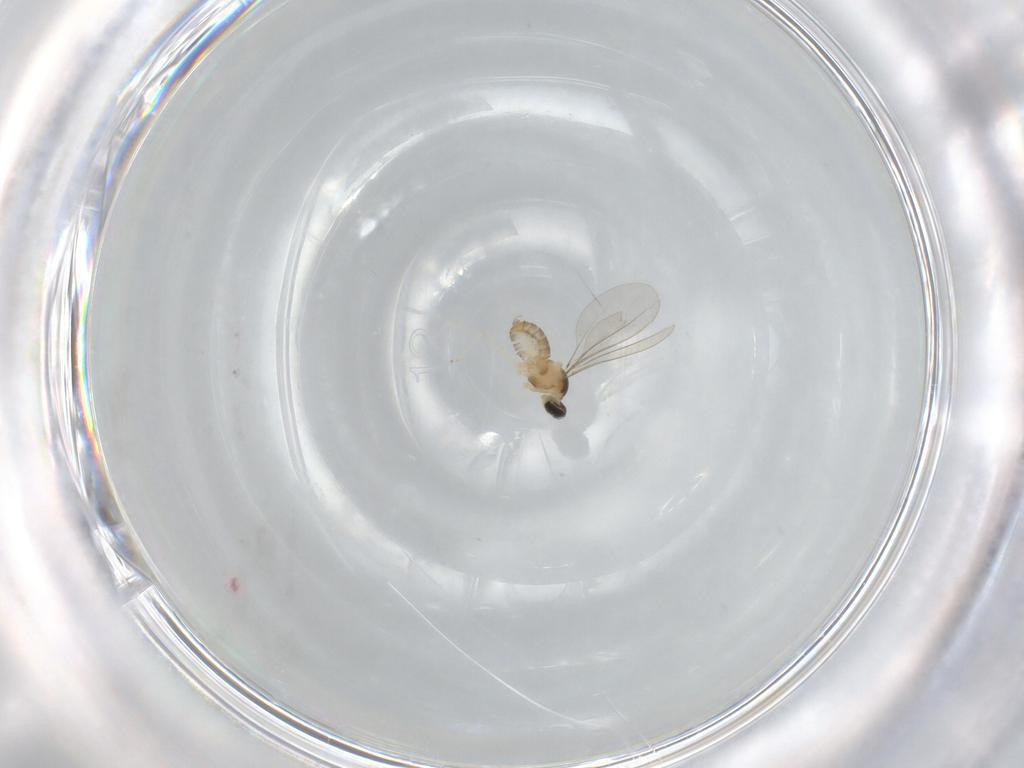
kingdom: Animalia
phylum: Arthropoda
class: Insecta
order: Diptera
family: Cecidomyiidae
